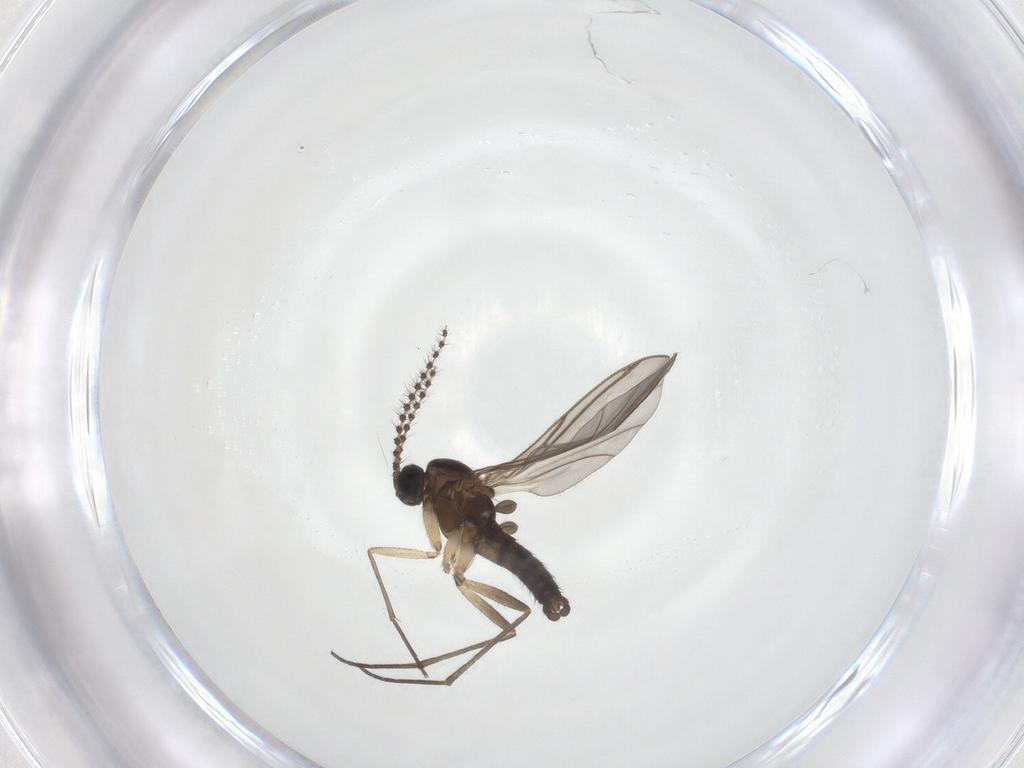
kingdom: Animalia
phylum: Arthropoda
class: Insecta
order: Diptera
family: Sciaridae
